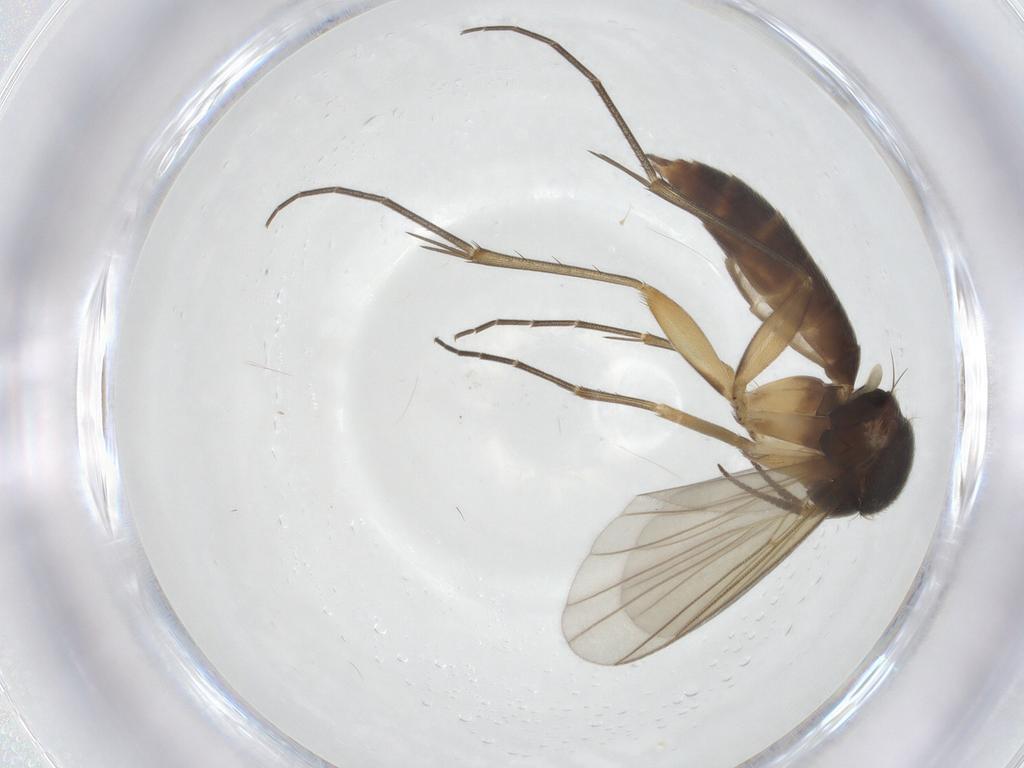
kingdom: Animalia
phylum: Arthropoda
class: Insecta
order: Diptera
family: Mycetophilidae
